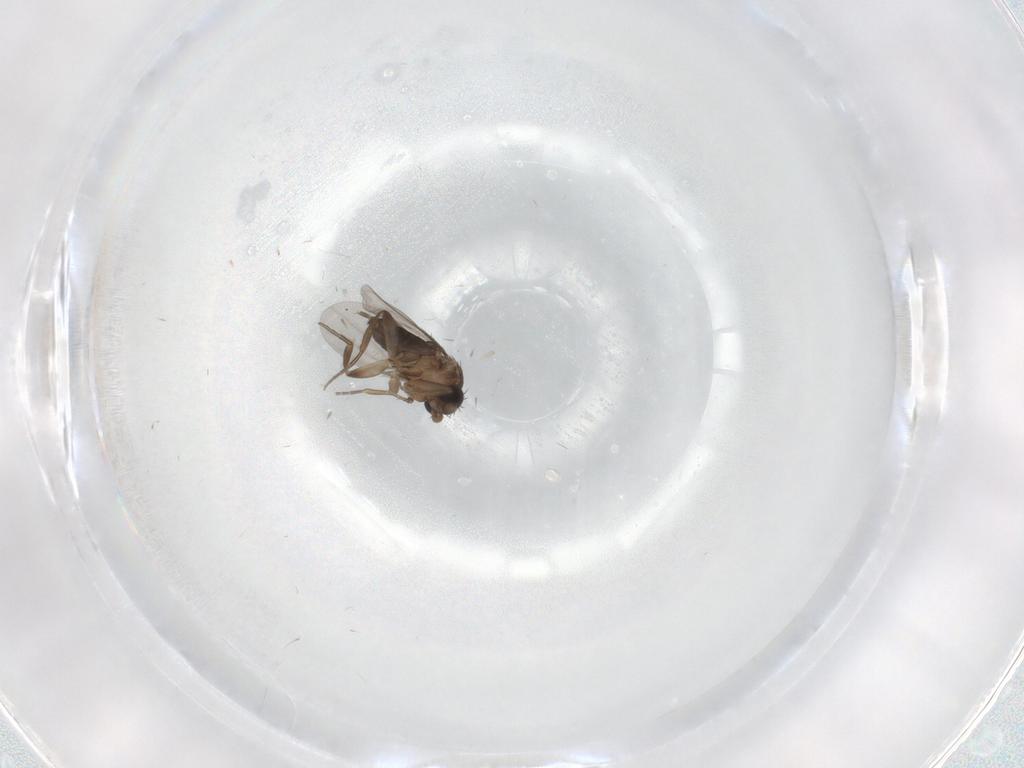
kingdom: Animalia
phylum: Arthropoda
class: Insecta
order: Diptera
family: Phoridae
